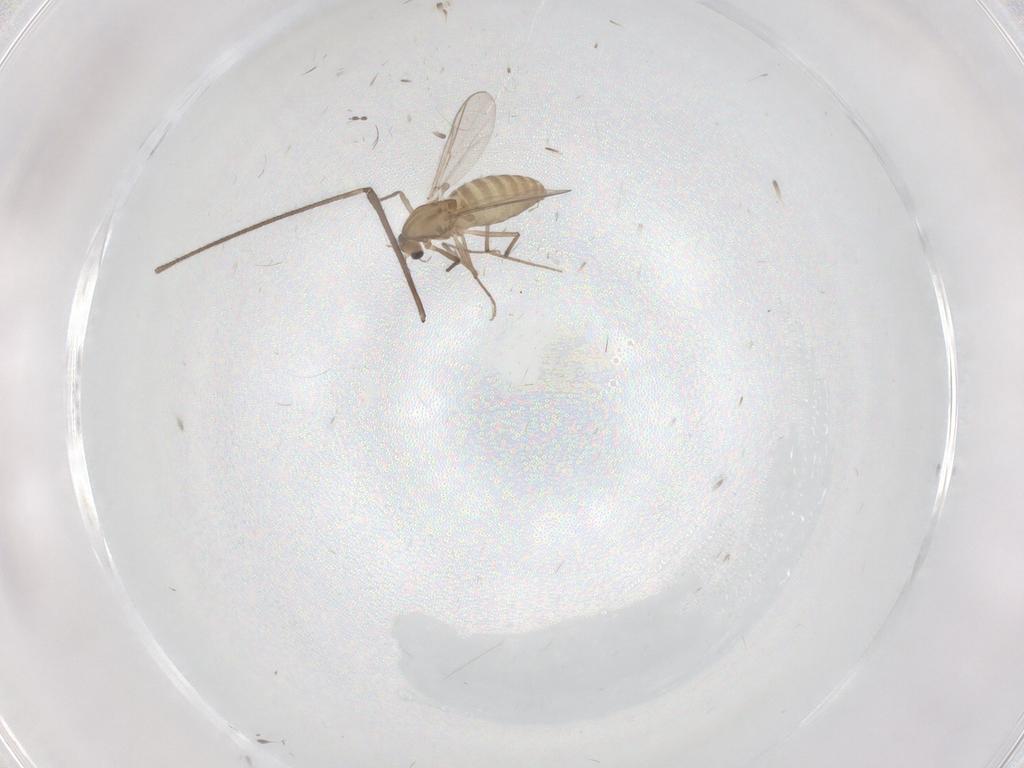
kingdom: Animalia
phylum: Arthropoda
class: Insecta
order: Diptera
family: Chironomidae
